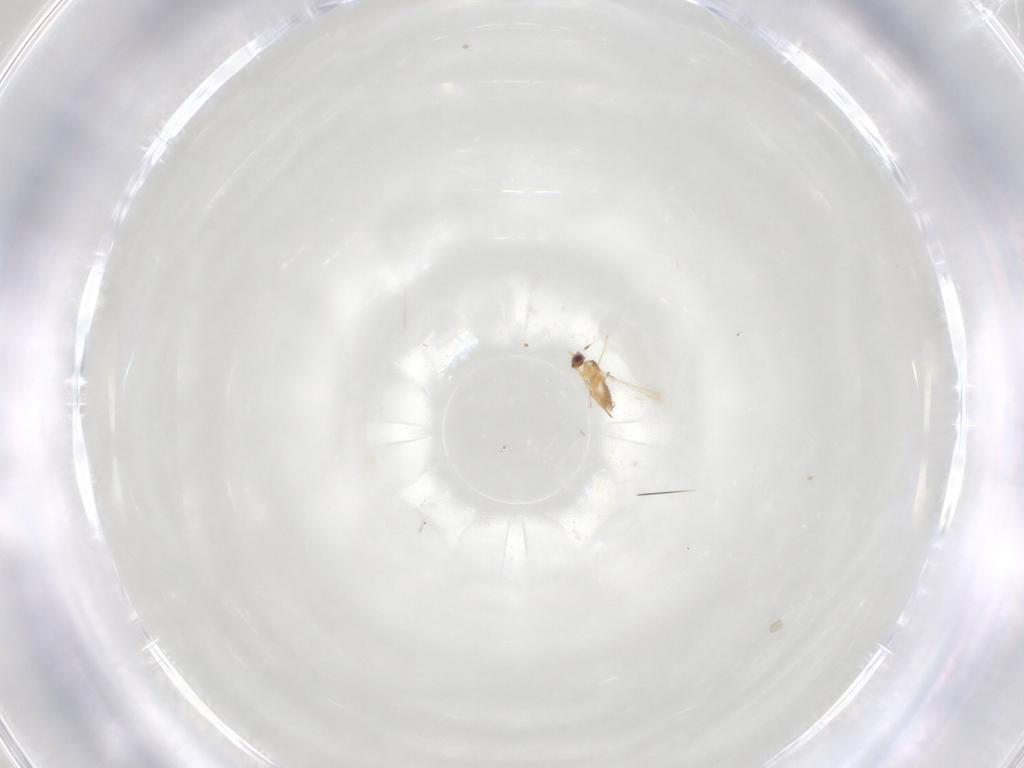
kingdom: Animalia
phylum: Arthropoda
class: Insecta
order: Hymenoptera
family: Mymaridae
